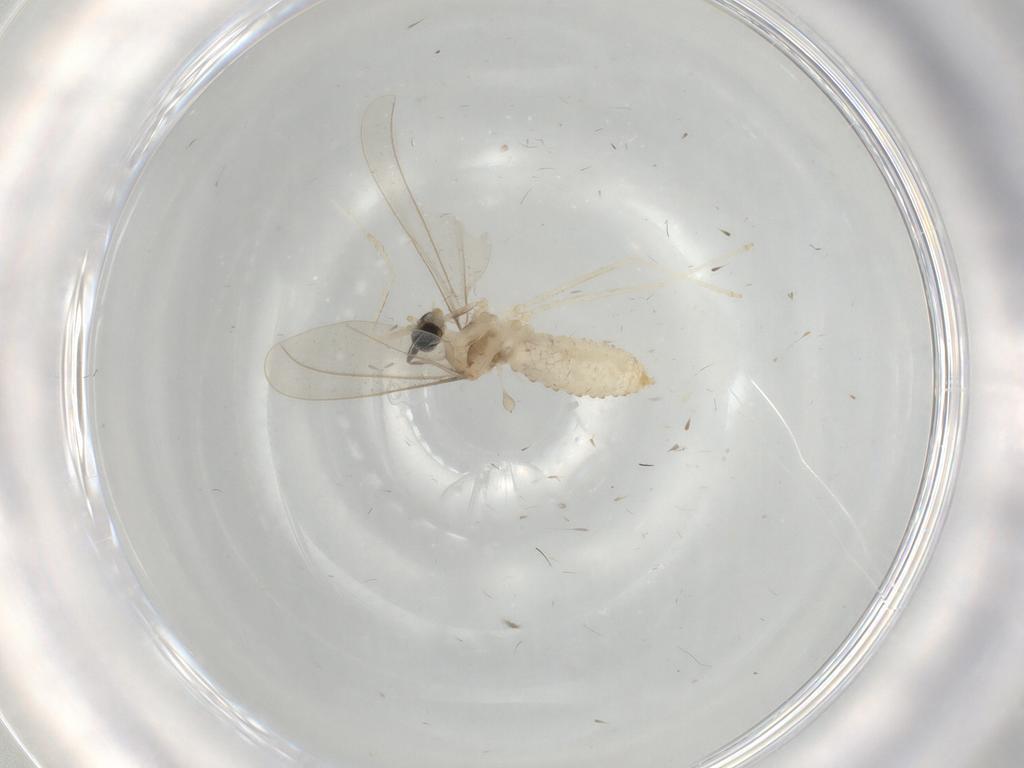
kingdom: Animalia
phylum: Arthropoda
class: Insecta
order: Diptera
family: Cecidomyiidae
